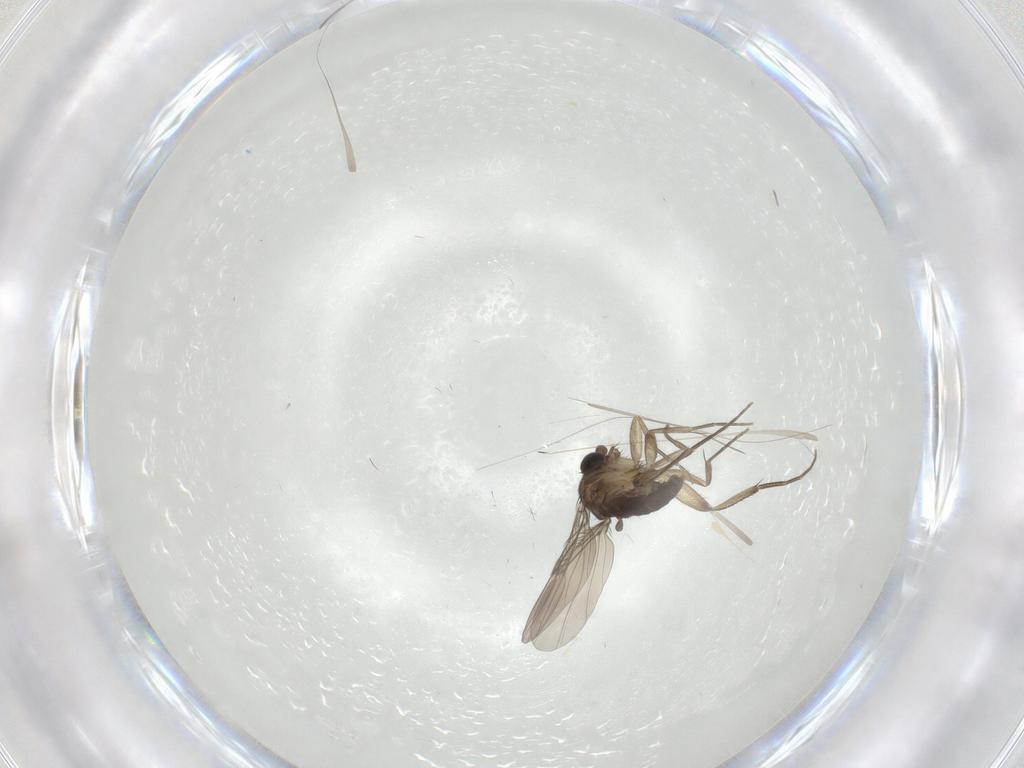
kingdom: Animalia
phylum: Arthropoda
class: Insecta
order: Diptera
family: Phoridae
